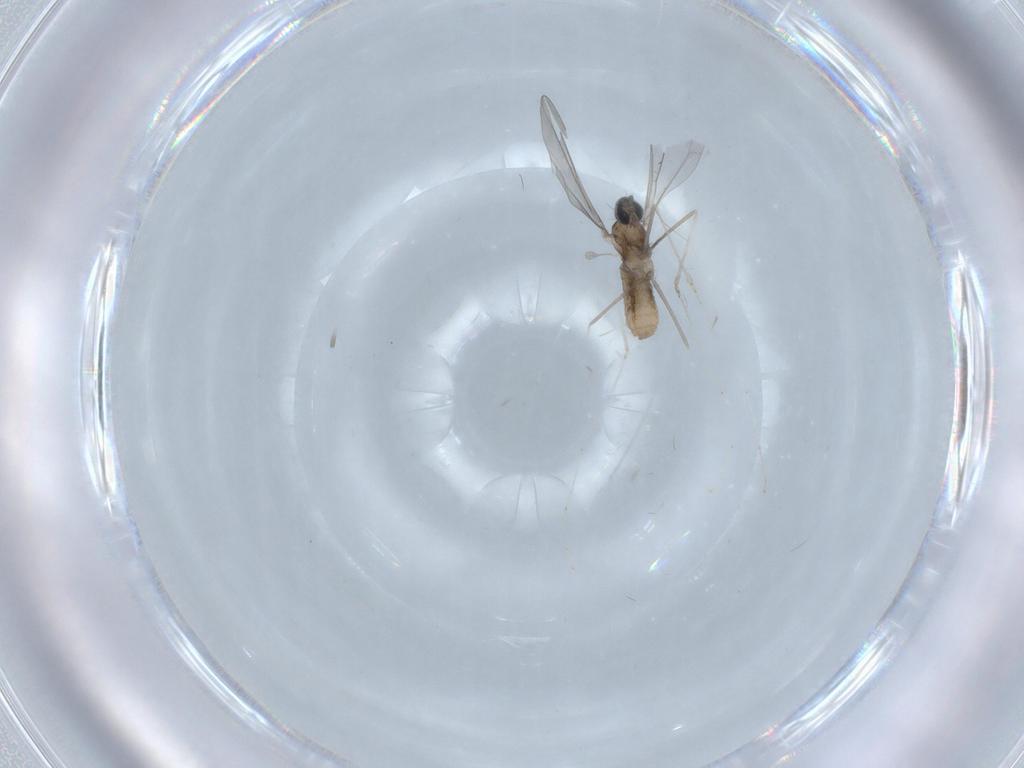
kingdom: Animalia
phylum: Arthropoda
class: Insecta
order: Diptera
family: Cecidomyiidae
